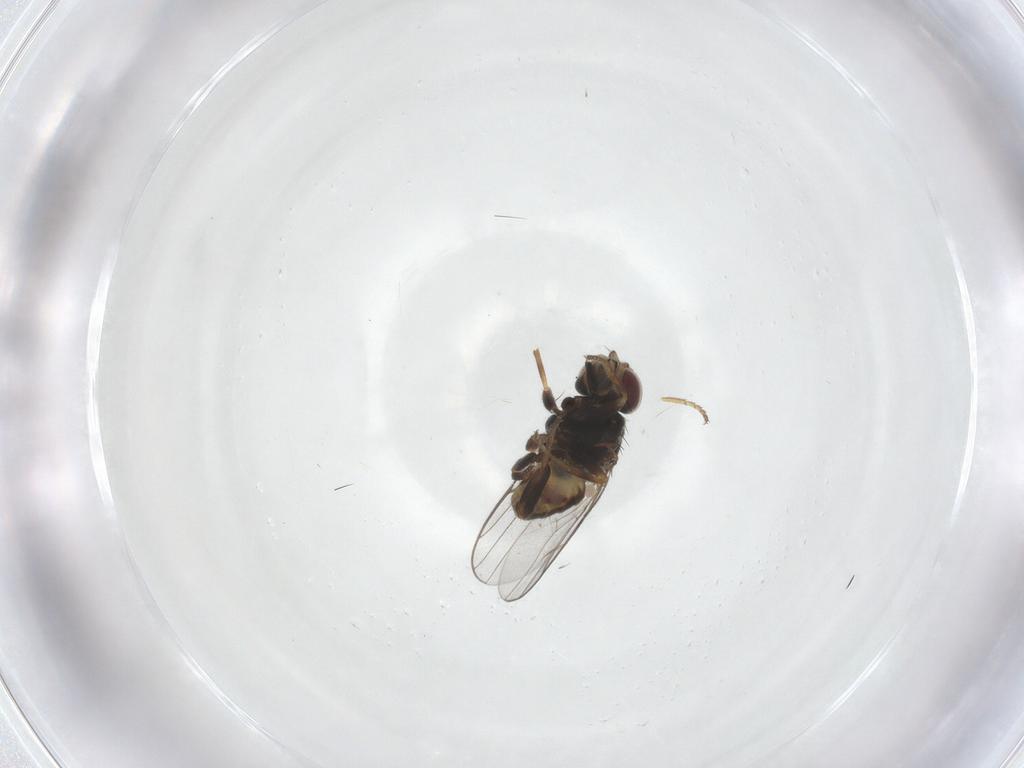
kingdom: Animalia
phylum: Arthropoda
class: Insecta
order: Diptera
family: Chloropidae
